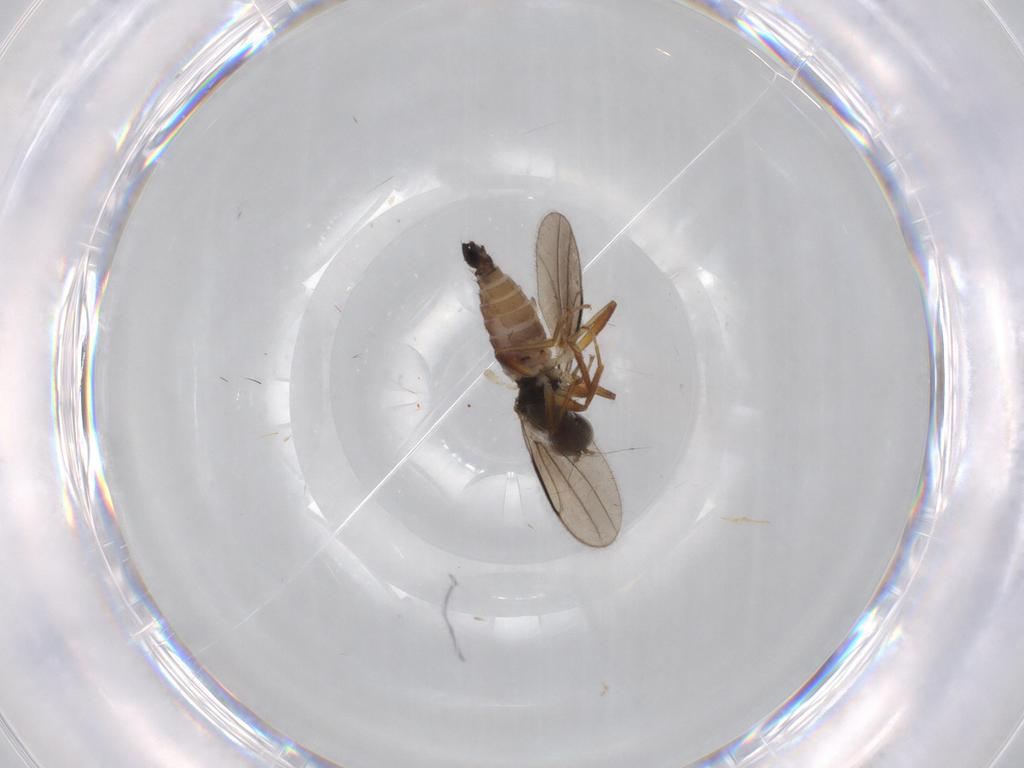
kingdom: Animalia
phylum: Arthropoda
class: Insecta
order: Diptera
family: Hybotidae
